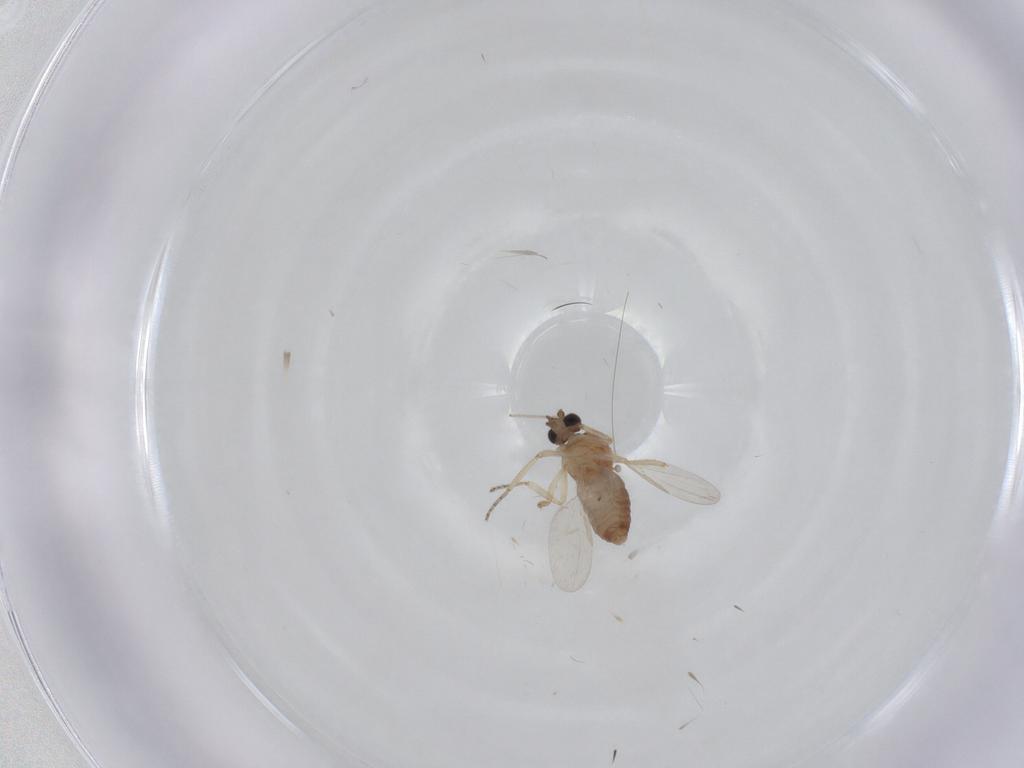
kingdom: Animalia
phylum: Arthropoda
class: Insecta
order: Diptera
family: Ceratopogonidae
